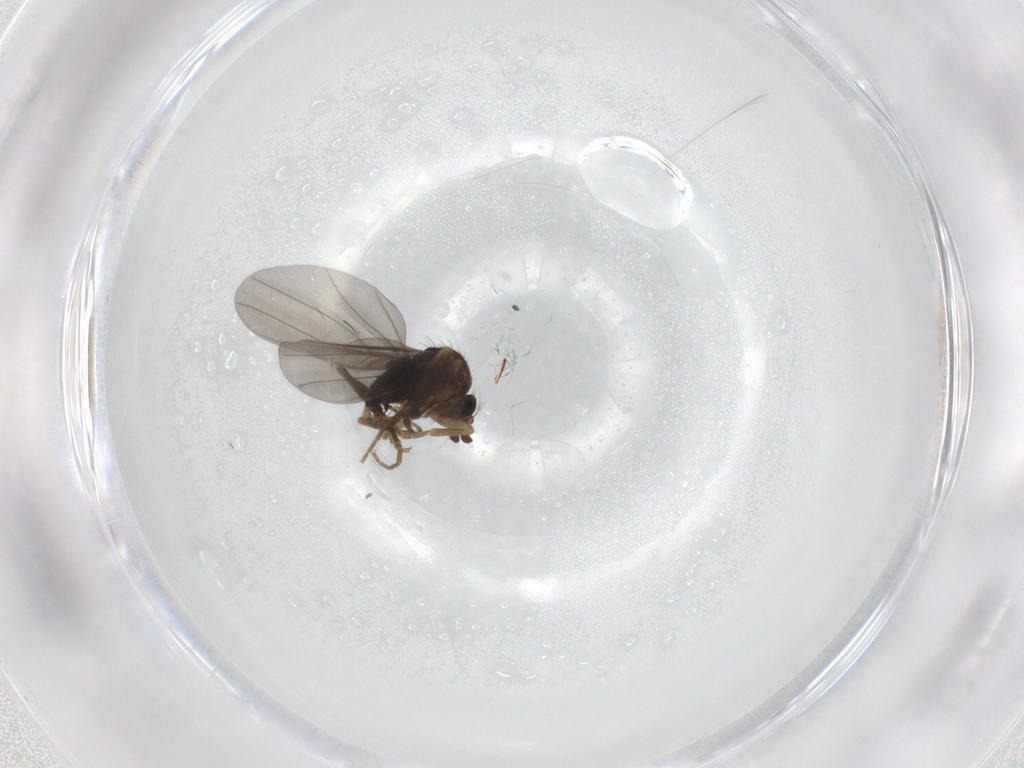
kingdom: Animalia
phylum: Arthropoda
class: Insecta
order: Diptera
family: Sciaridae
